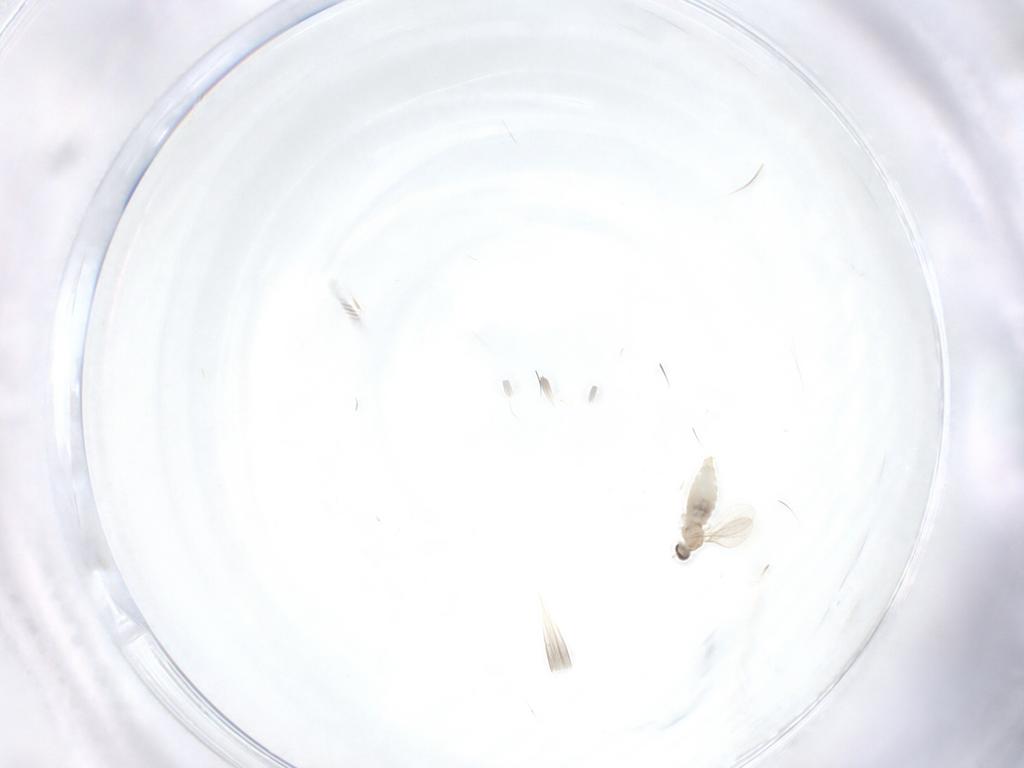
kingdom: Animalia
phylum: Arthropoda
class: Insecta
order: Diptera
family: Cecidomyiidae
